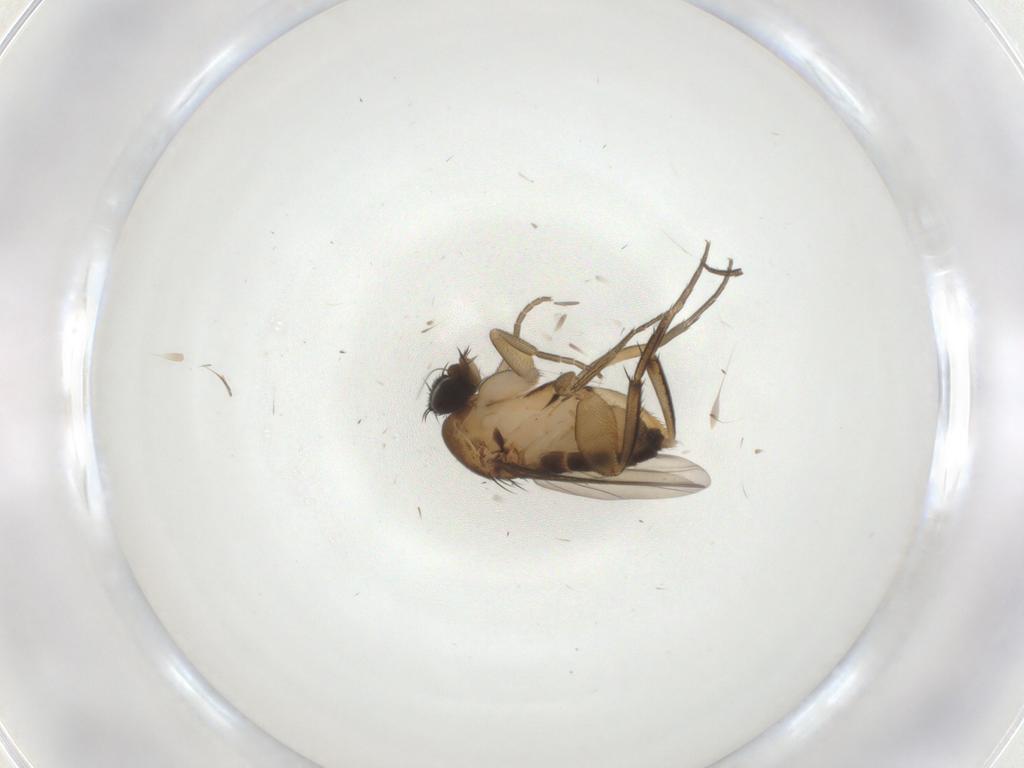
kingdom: Animalia
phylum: Arthropoda
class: Insecta
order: Diptera
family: Phoridae
